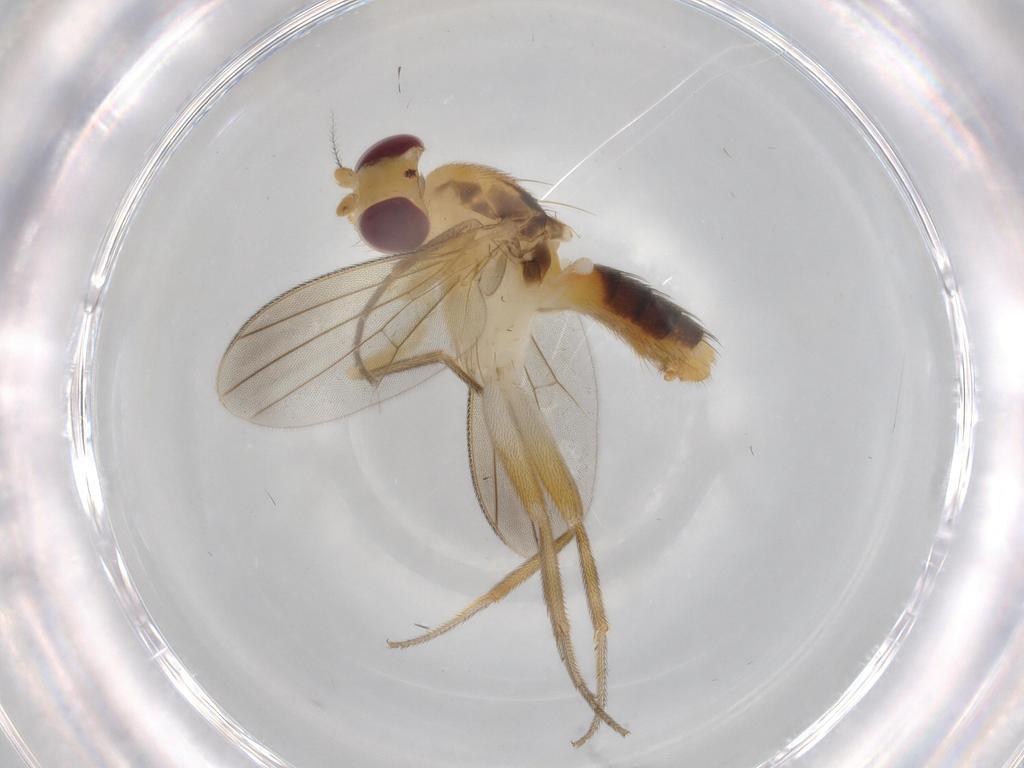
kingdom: Animalia
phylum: Arthropoda
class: Insecta
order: Diptera
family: Agromyzidae
